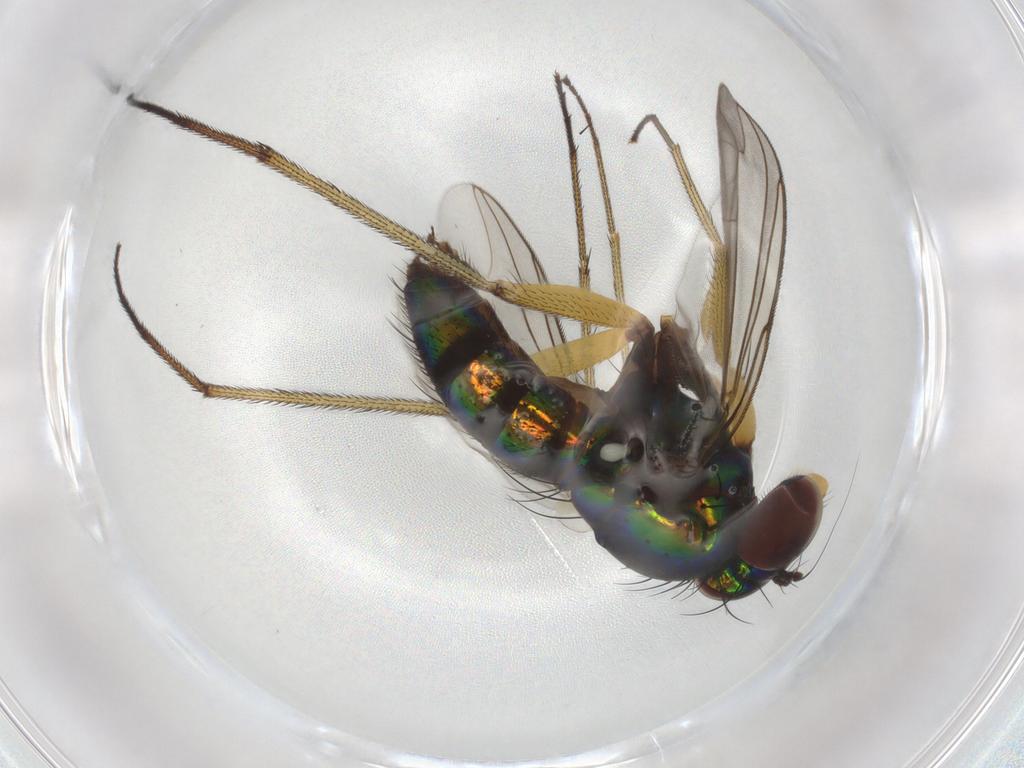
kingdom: Animalia
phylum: Arthropoda
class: Insecta
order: Diptera
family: Dolichopodidae
